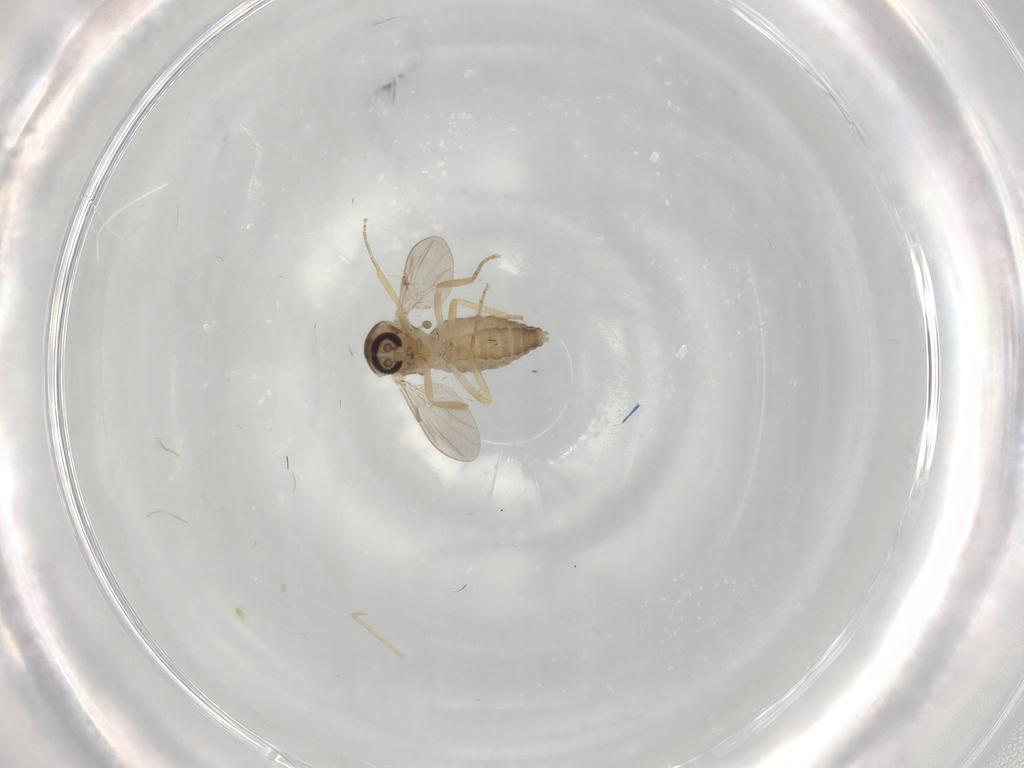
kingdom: Animalia
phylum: Arthropoda
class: Insecta
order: Diptera
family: Ceratopogonidae
